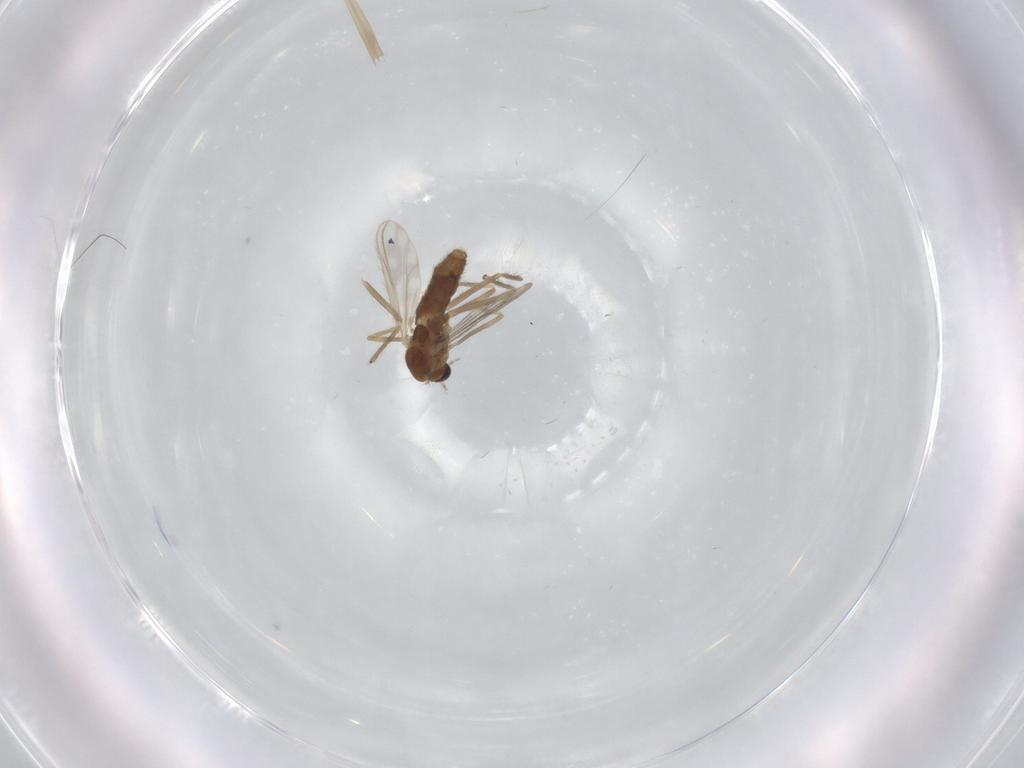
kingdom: Animalia
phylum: Arthropoda
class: Insecta
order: Diptera
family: Chironomidae
